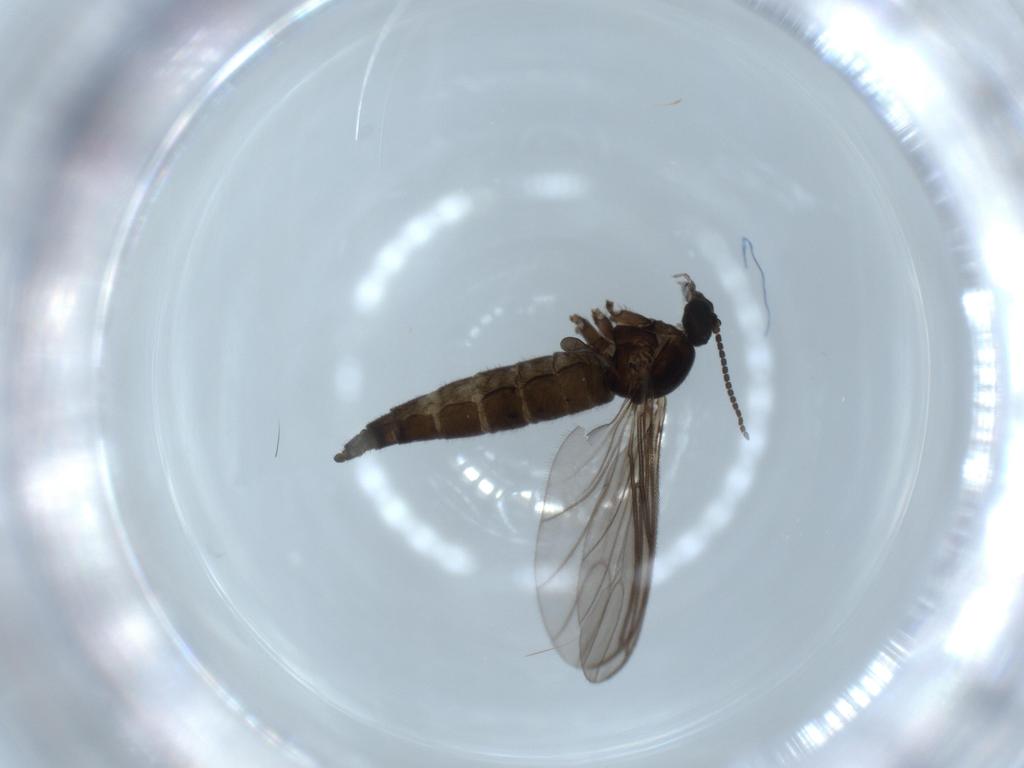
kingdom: Animalia
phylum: Arthropoda
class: Insecta
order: Diptera
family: Sciaridae
